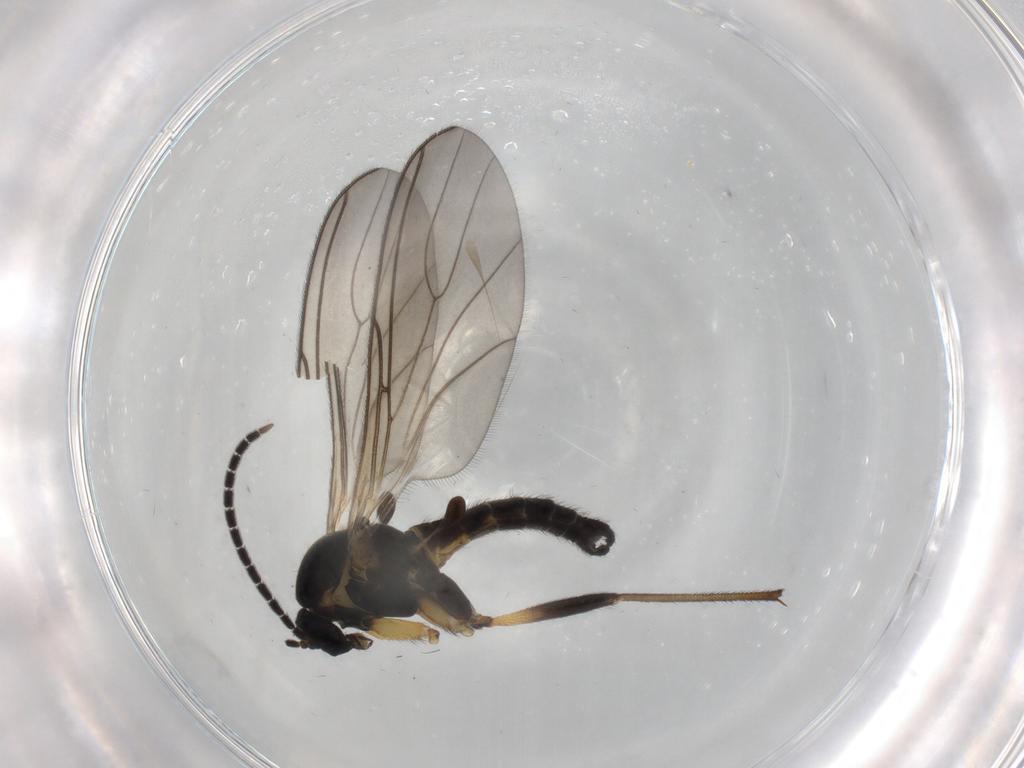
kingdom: Animalia
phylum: Arthropoda
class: Insecta
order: Diptera
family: Sciaridae
